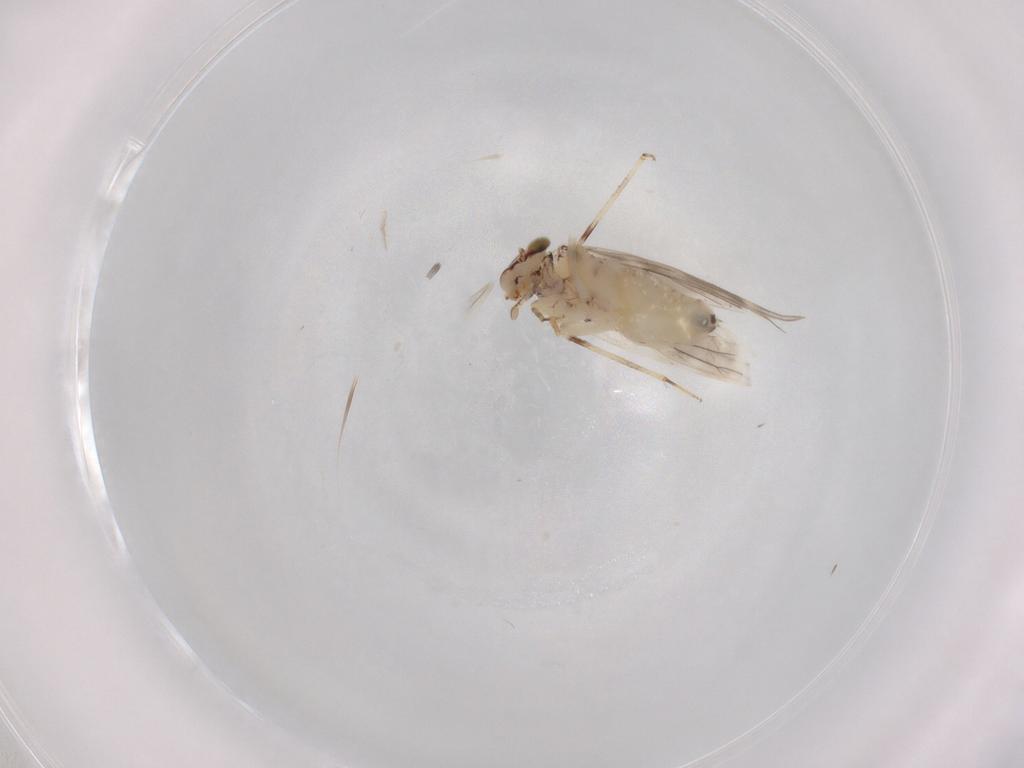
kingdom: Animalia
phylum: Arthropoda
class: Insecta
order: Psocodea
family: Lepidopsocidae
